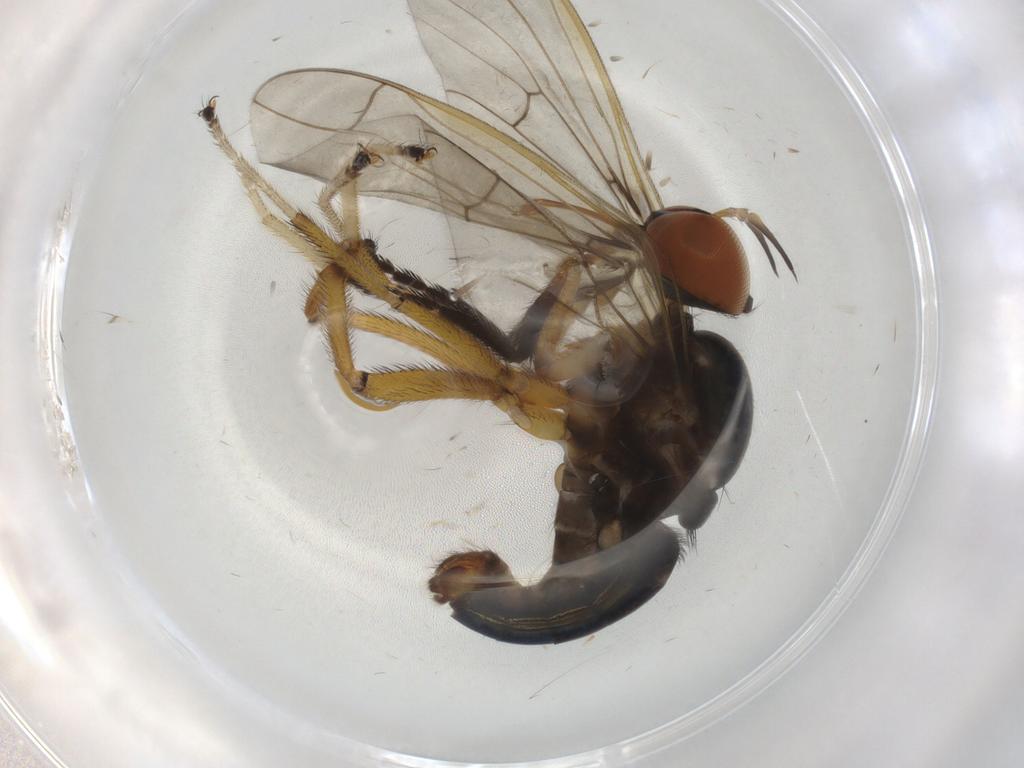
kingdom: Animalia
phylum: Arthropoda
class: Insecta
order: Diptera
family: Empididae
